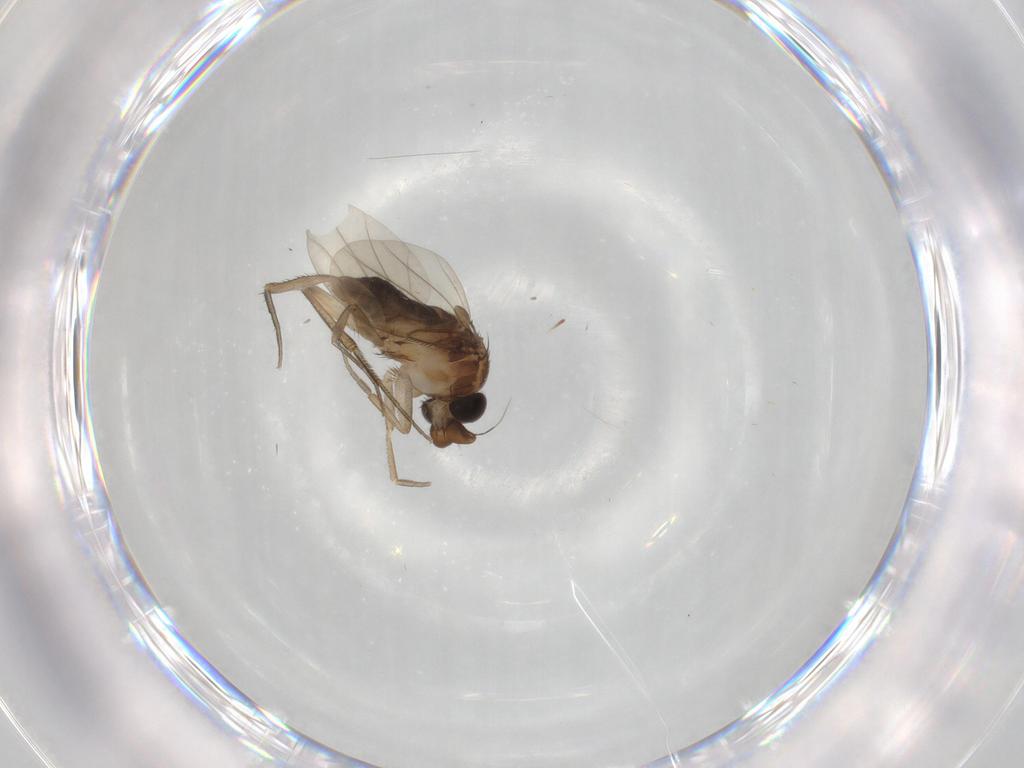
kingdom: Animalia
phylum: Arthropoda
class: Insecta
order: Diptera
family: Phoridae
